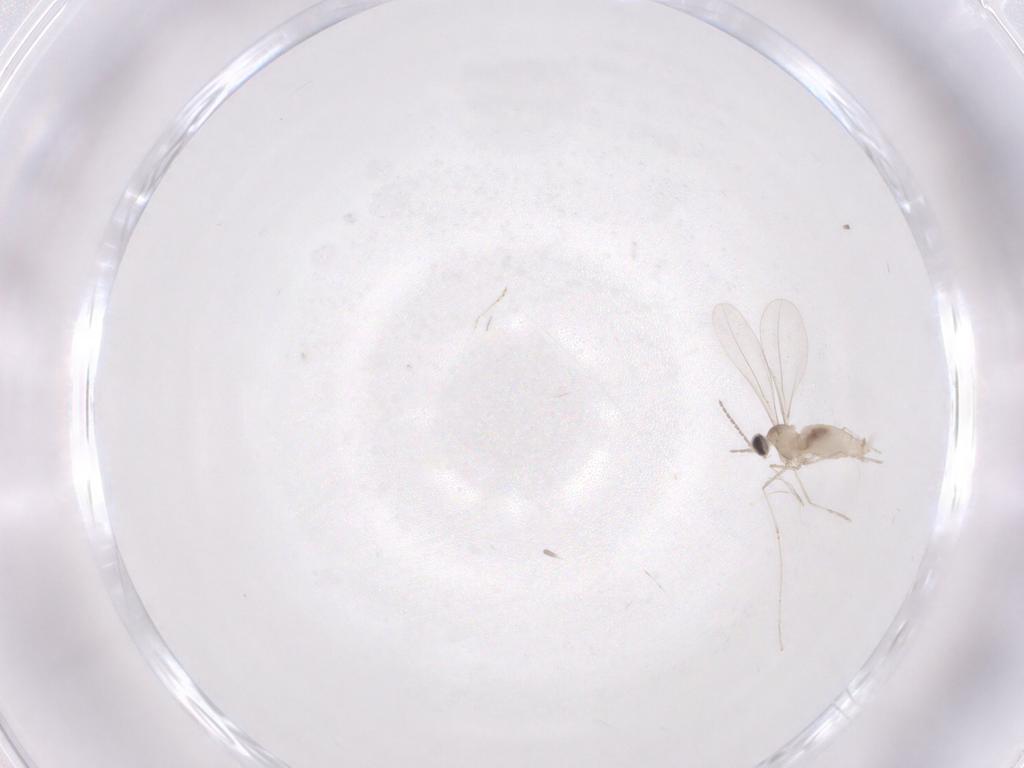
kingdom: Animalia
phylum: Arthropoda
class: Insecta
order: Diptera
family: Cecidomyiidae
